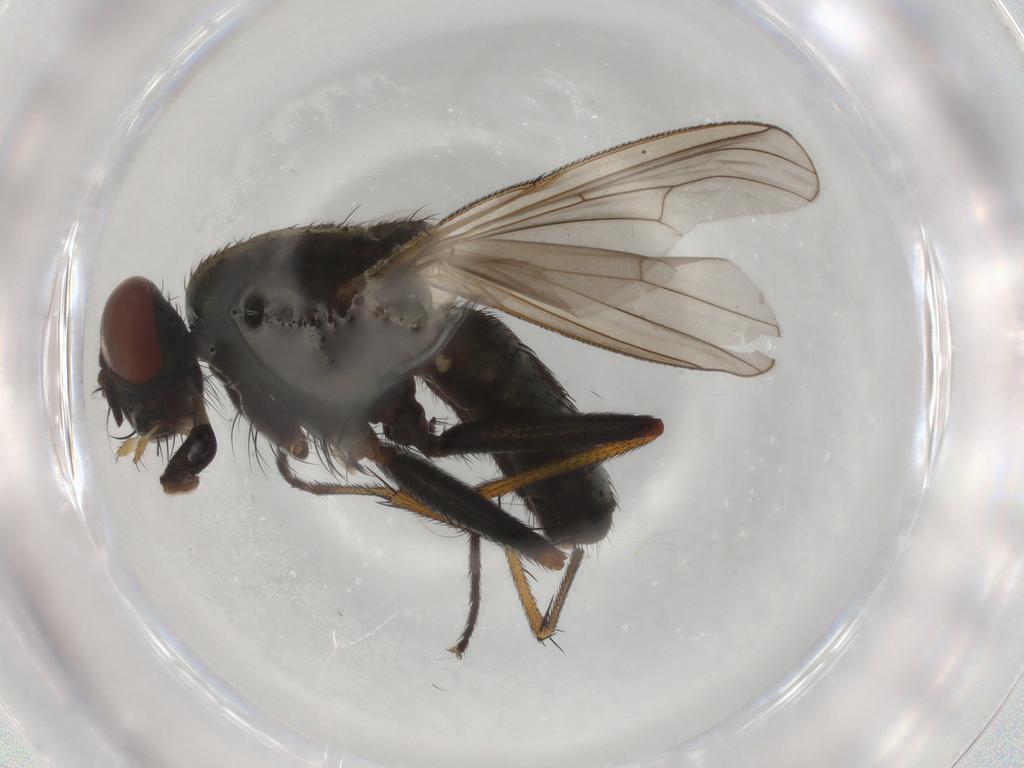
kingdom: Animalia
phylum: Arthropoda
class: Insecta
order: Diptera
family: Muscidae
